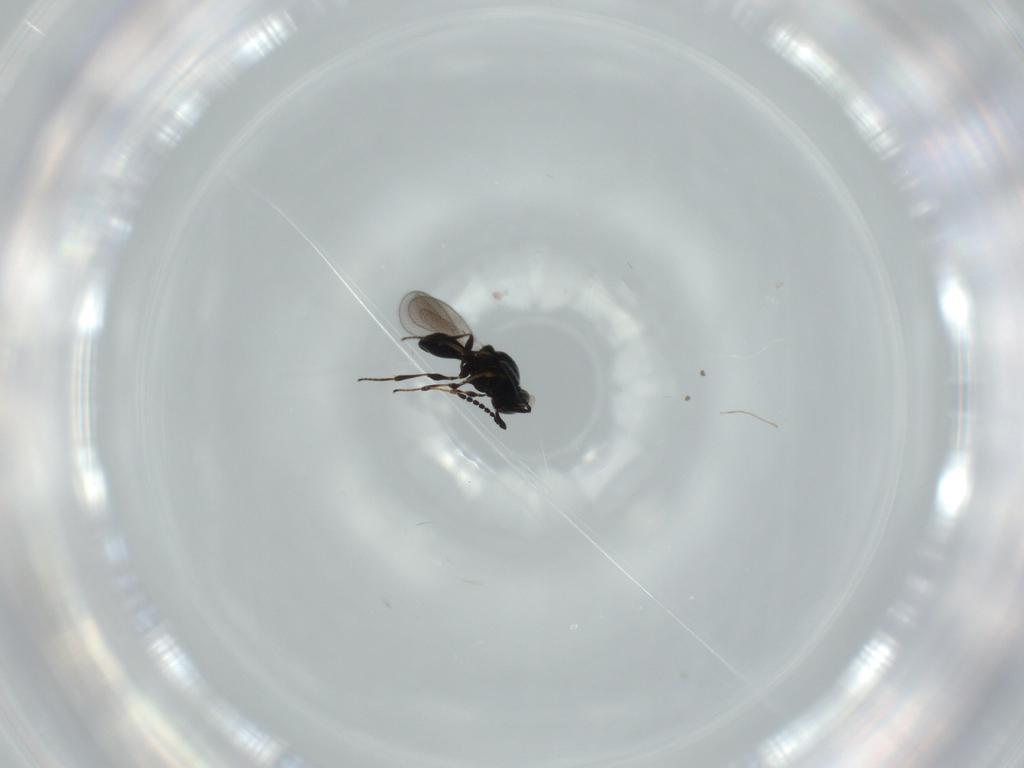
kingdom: Animalia
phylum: Arthropoda
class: Insecta
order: Hymenoptera
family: Platygastridae
